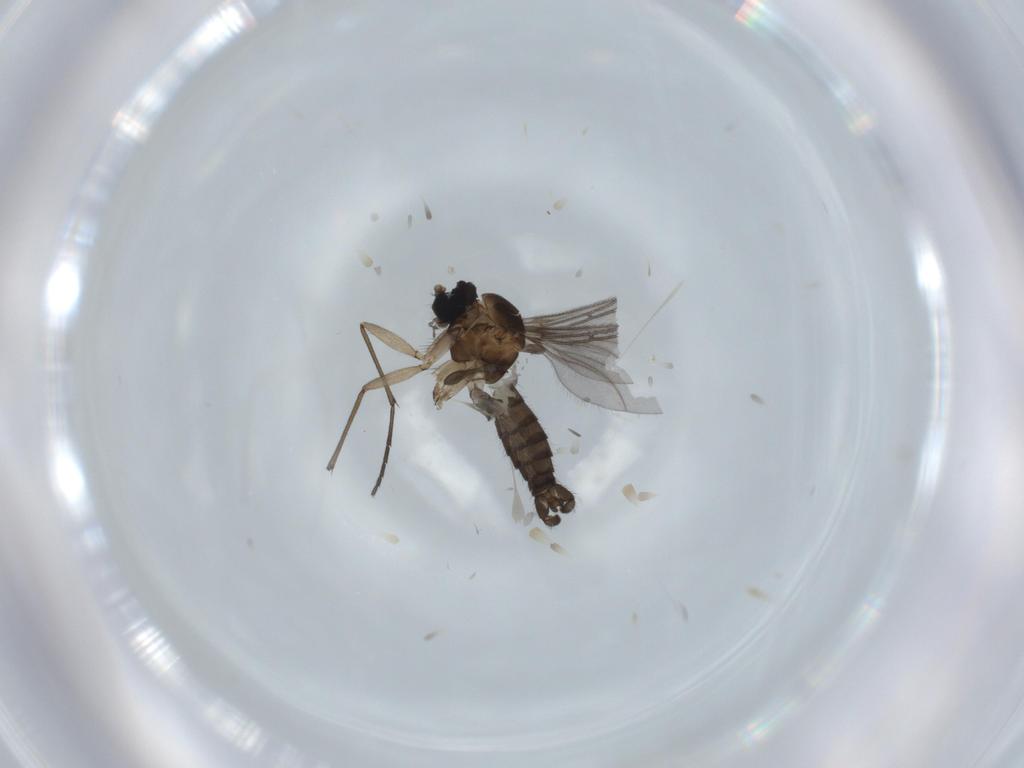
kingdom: Animalia
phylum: Arthropoda
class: Insecta
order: Diptera
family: Sciaridae
